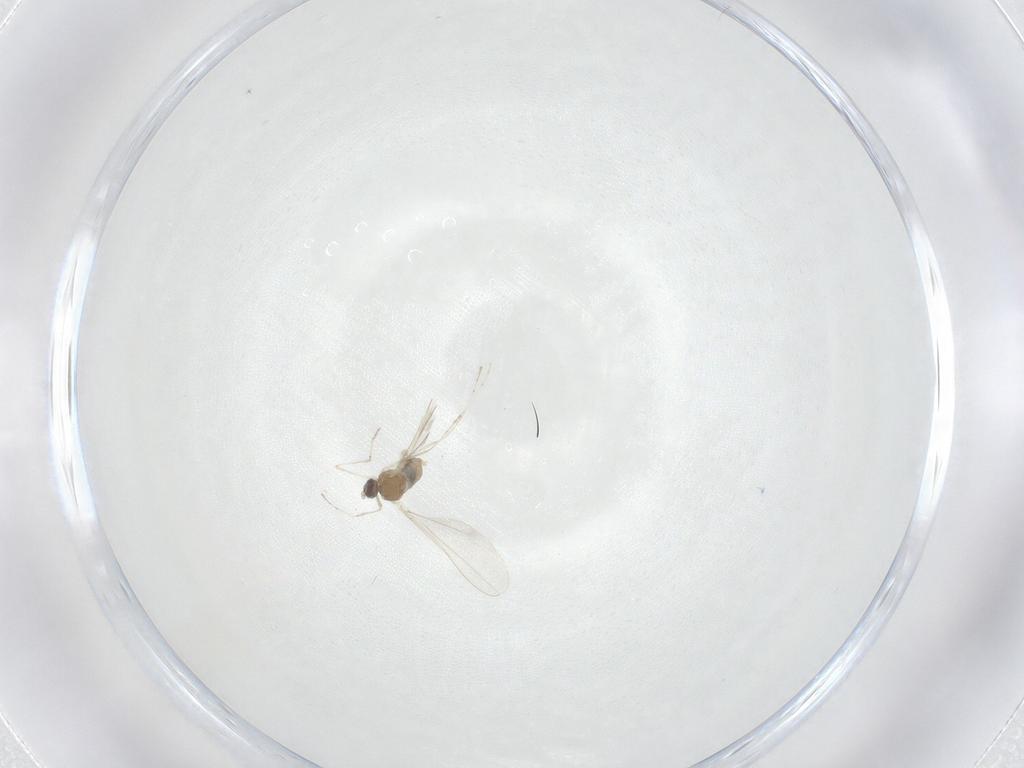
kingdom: Animalia
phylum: Arthropoda
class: Insecta
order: Diptera
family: Cecidomyiidae
